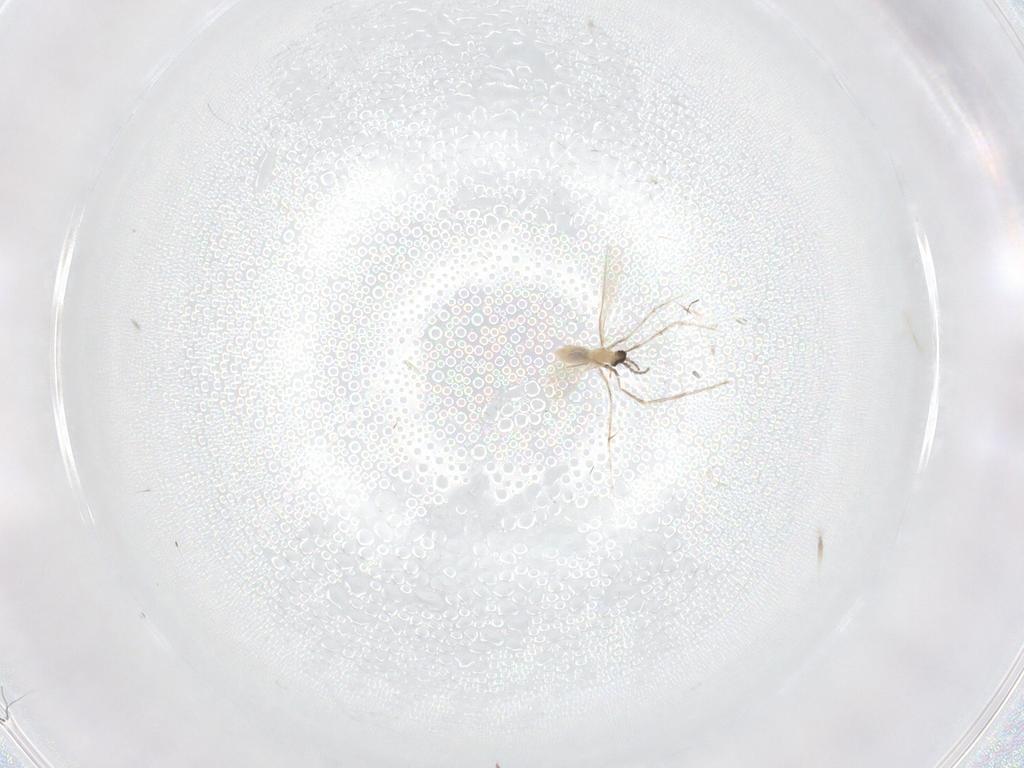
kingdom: Animalia
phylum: Arthropoda
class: Insecta
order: Diptera
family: Cecidomyiidae
